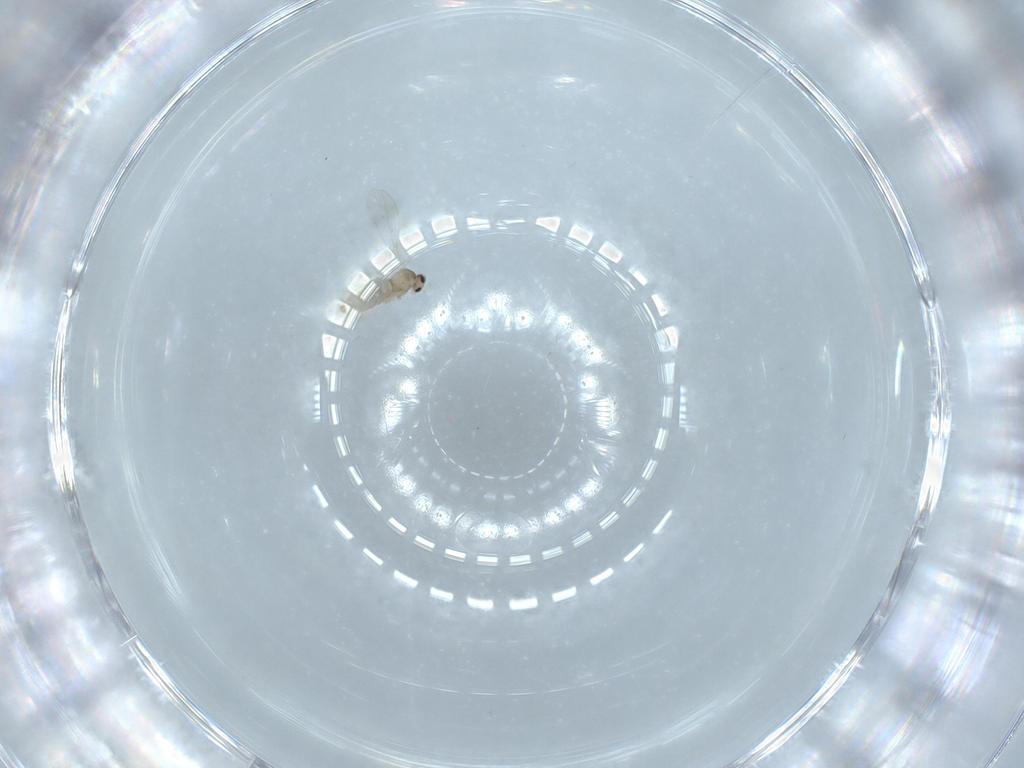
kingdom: Animalia
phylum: Arthropoda
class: Insecta
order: Diptera
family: Cecidomyiidae
